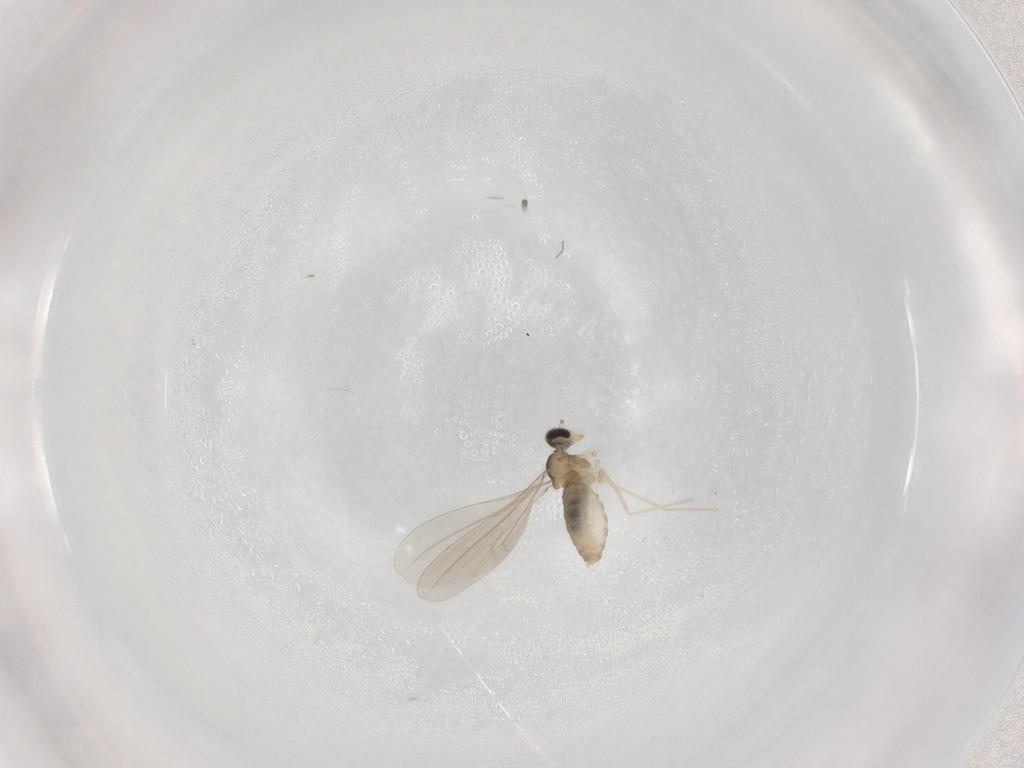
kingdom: Animalia
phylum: Arthropoda
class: Insecta
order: Diptera
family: Cecidomyiidae
